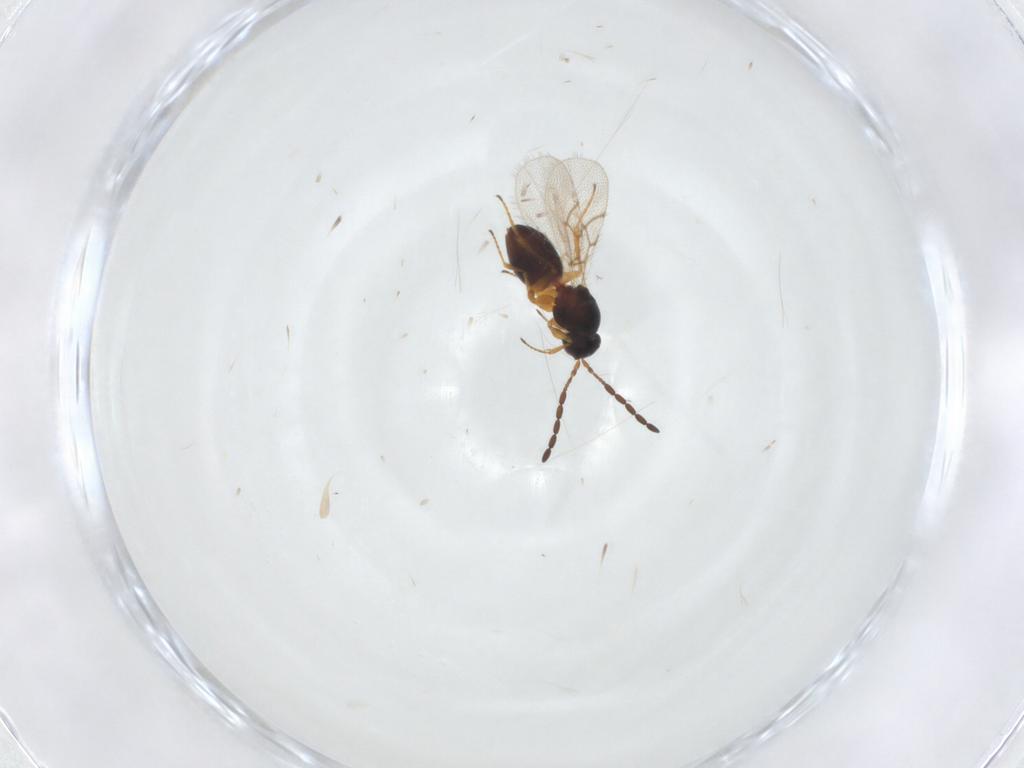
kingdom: Animalia
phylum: Arthropoda
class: Insecta
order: Hymenoptera
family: Figitidae
